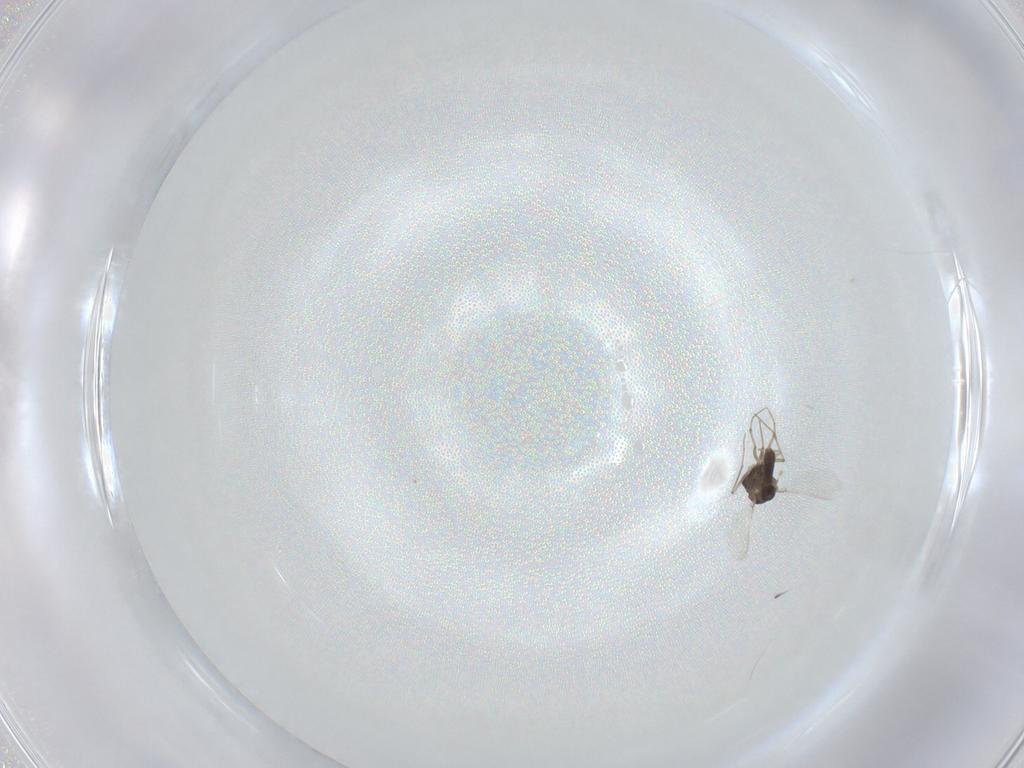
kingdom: Animalia
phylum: Arthropoda
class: Insecta
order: Diptera
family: Chironomidae
